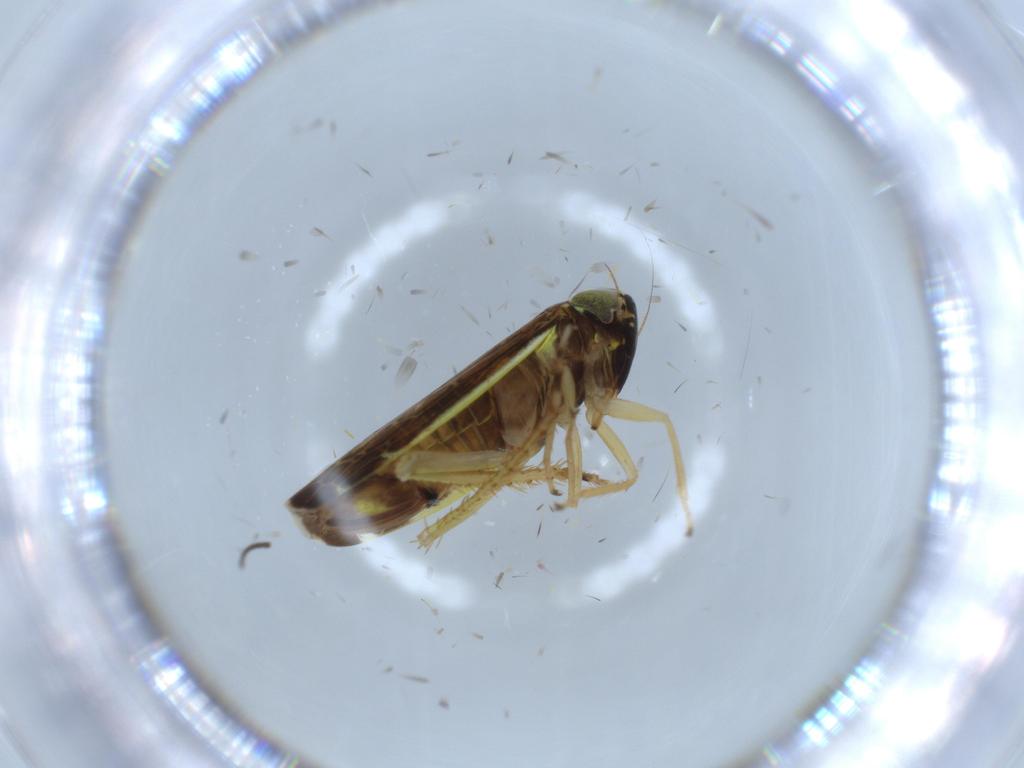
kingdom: Animalia
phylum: Arthropoda
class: Insecta
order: Hemiptera
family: Cicadellidae
